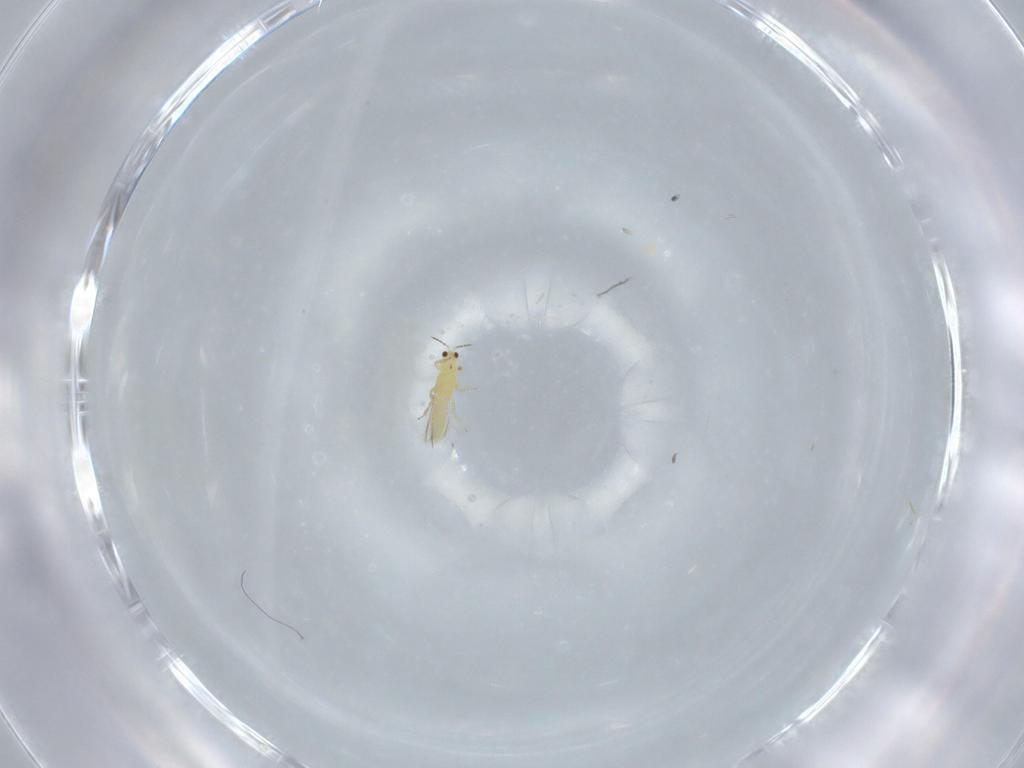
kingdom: Animalia
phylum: Arthropoda
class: Insecta
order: Thysanoptera
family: Thripidae
